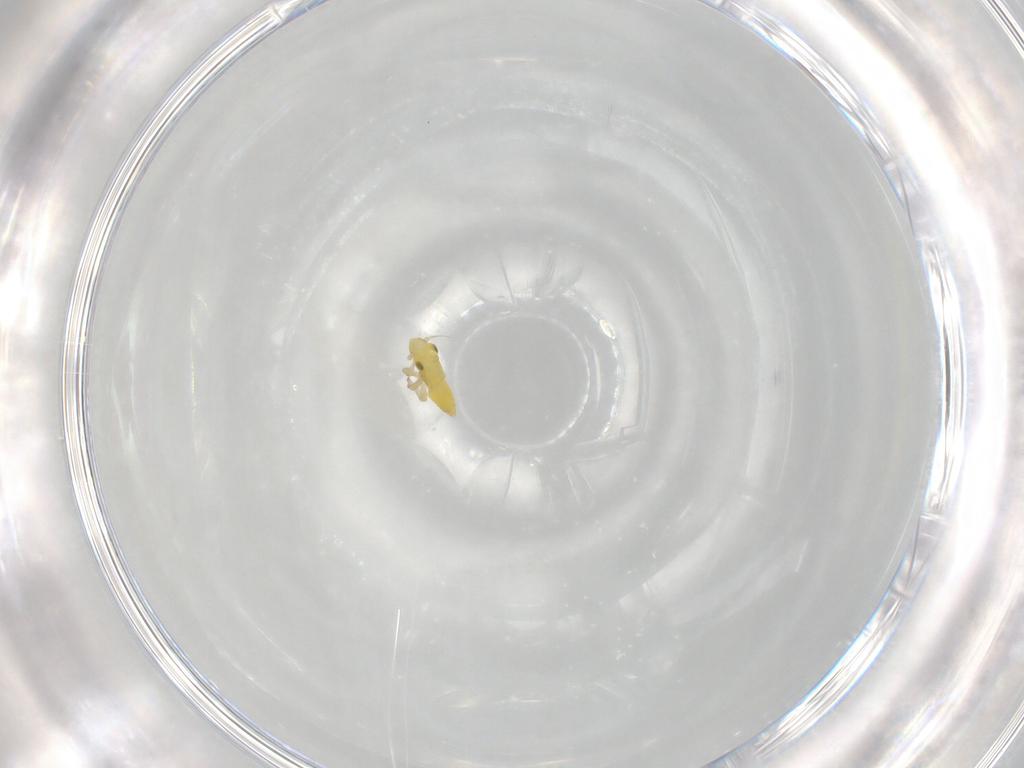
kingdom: Animalia
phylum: Arthropoda
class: Insecta
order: Hemiptera
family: Cicadellidae
